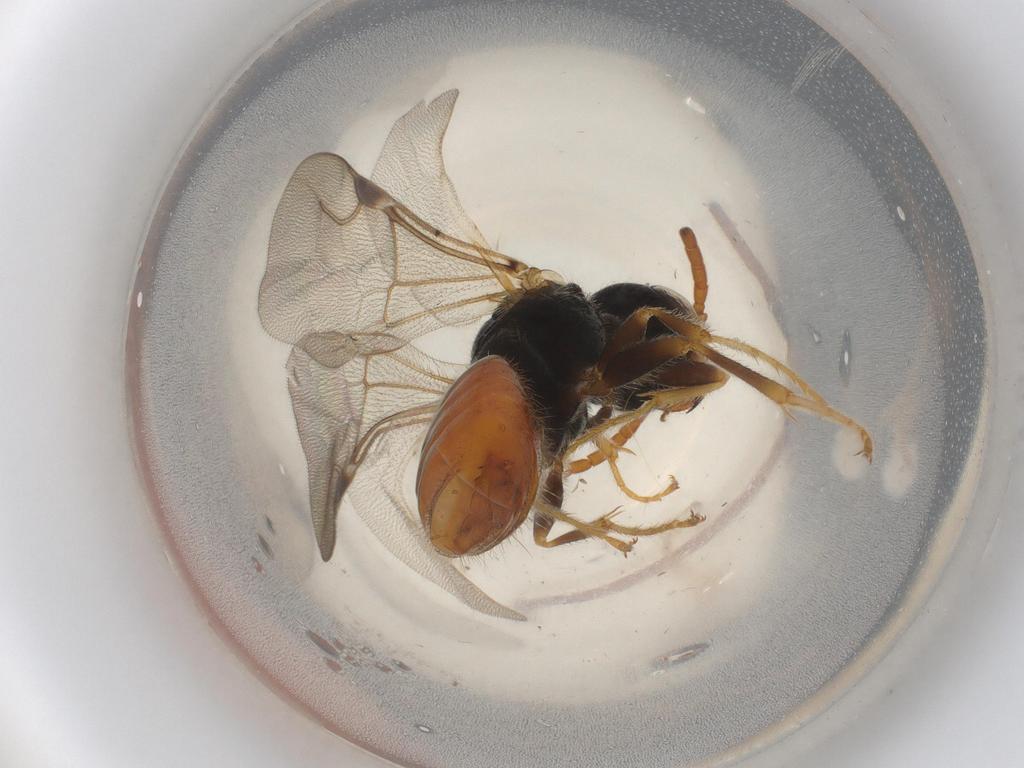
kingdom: Animalia
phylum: Arthropoda
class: Insecta
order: Hymenoptera
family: Bethylidae
